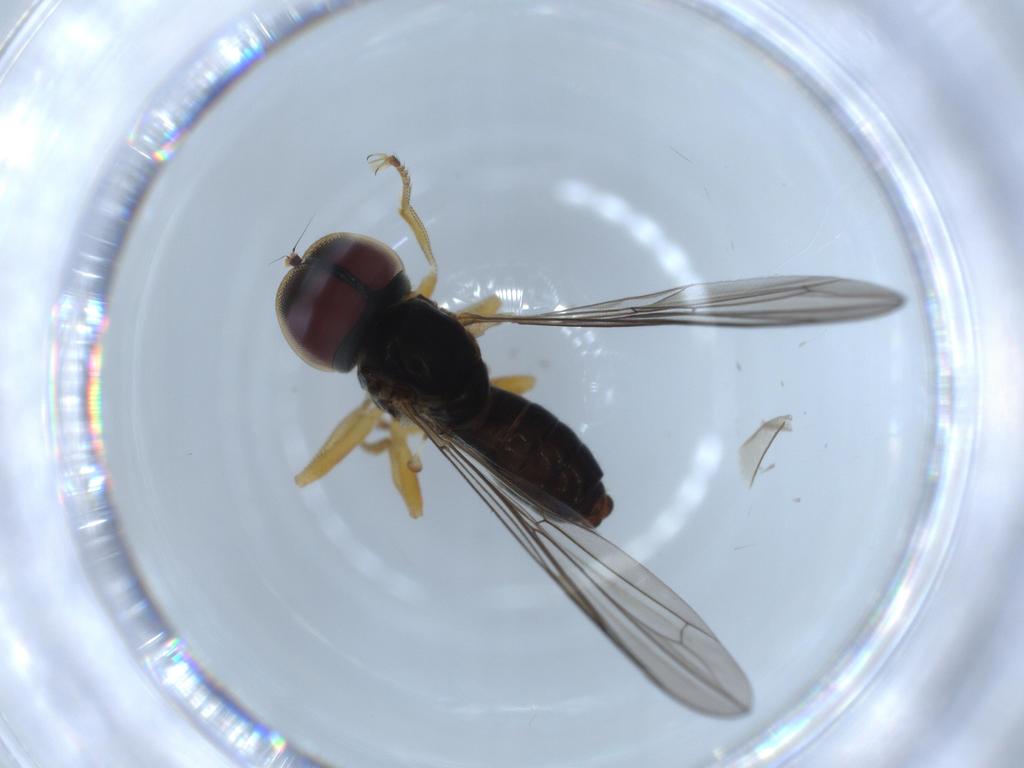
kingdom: Animalia
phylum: Arthropoda
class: Insecta
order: Diptera
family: Pipunculidae
